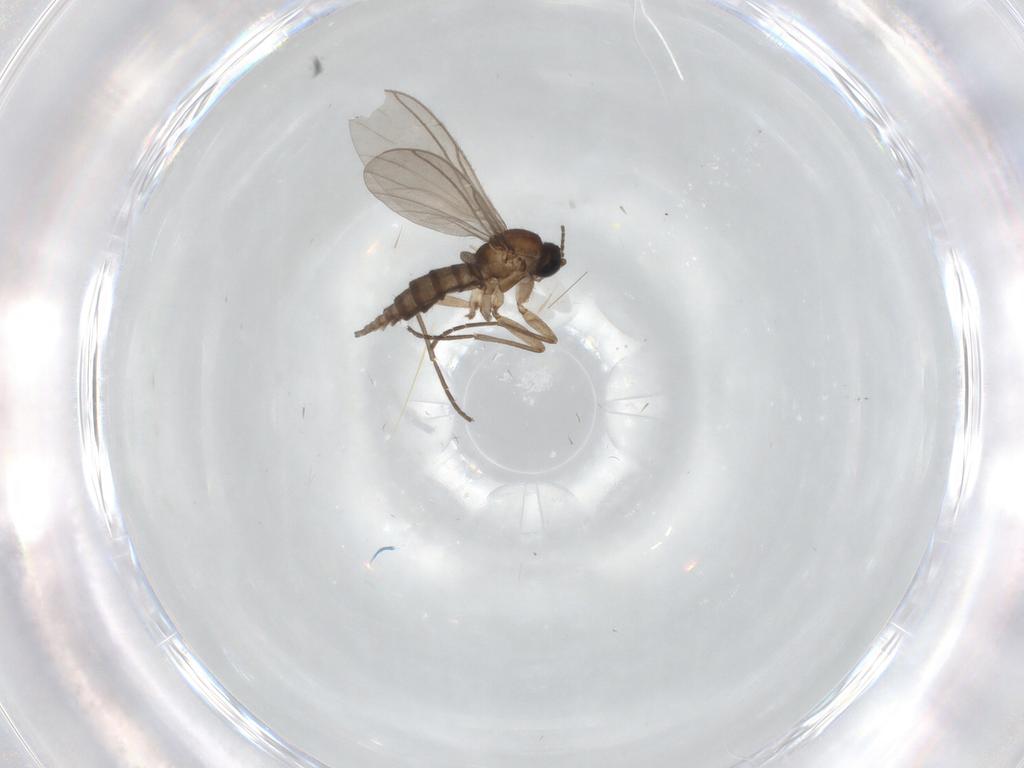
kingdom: Animalia
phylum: Arthropoda
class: Insecta
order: Diptera
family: Sciaridae
